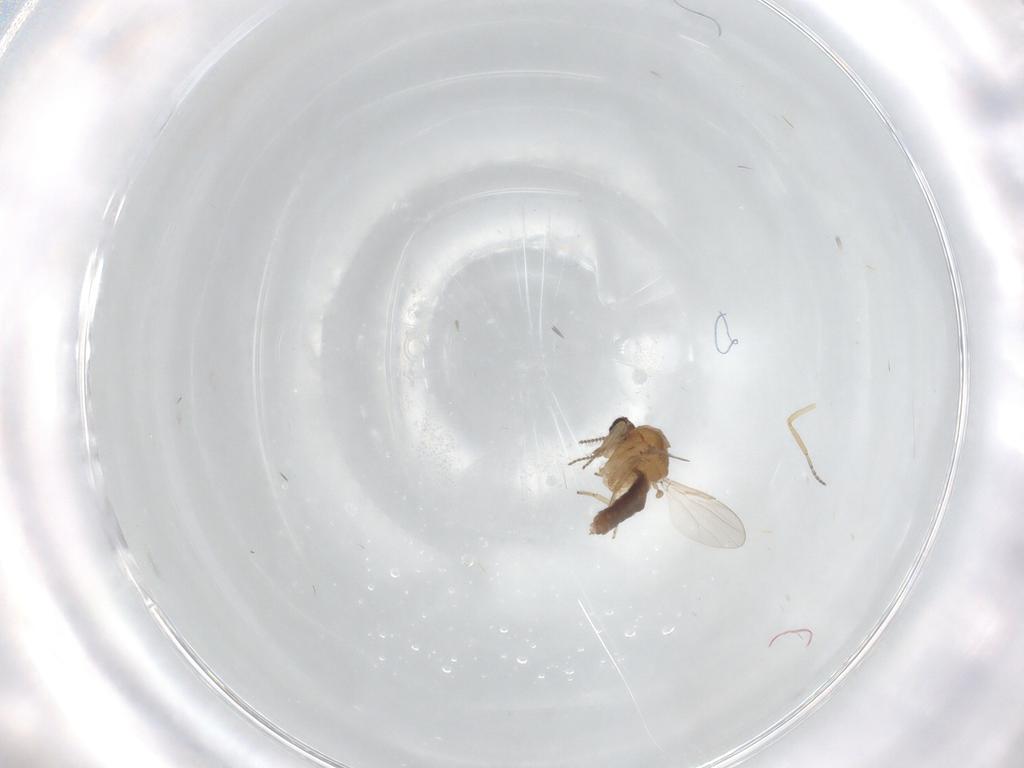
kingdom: Animalia
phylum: Arthropoda
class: Insecta
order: Diptera
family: Ceratopogonidae
